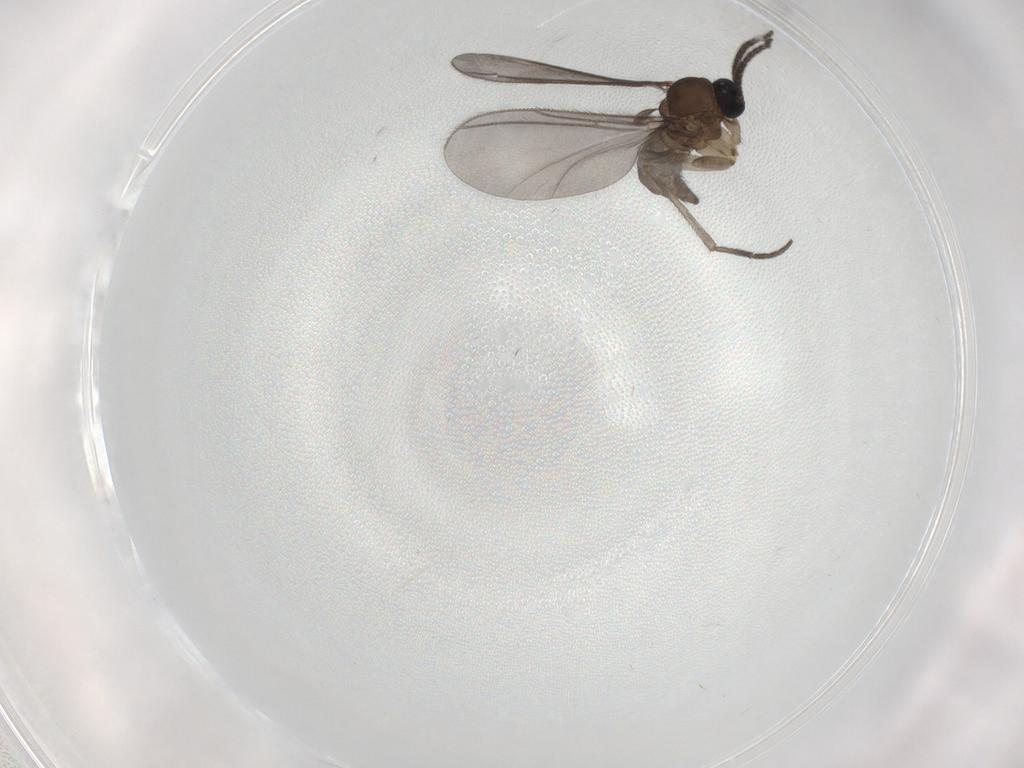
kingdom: Animalia
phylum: Arthropoda
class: Insecta
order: Diptera
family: Sciaridae
